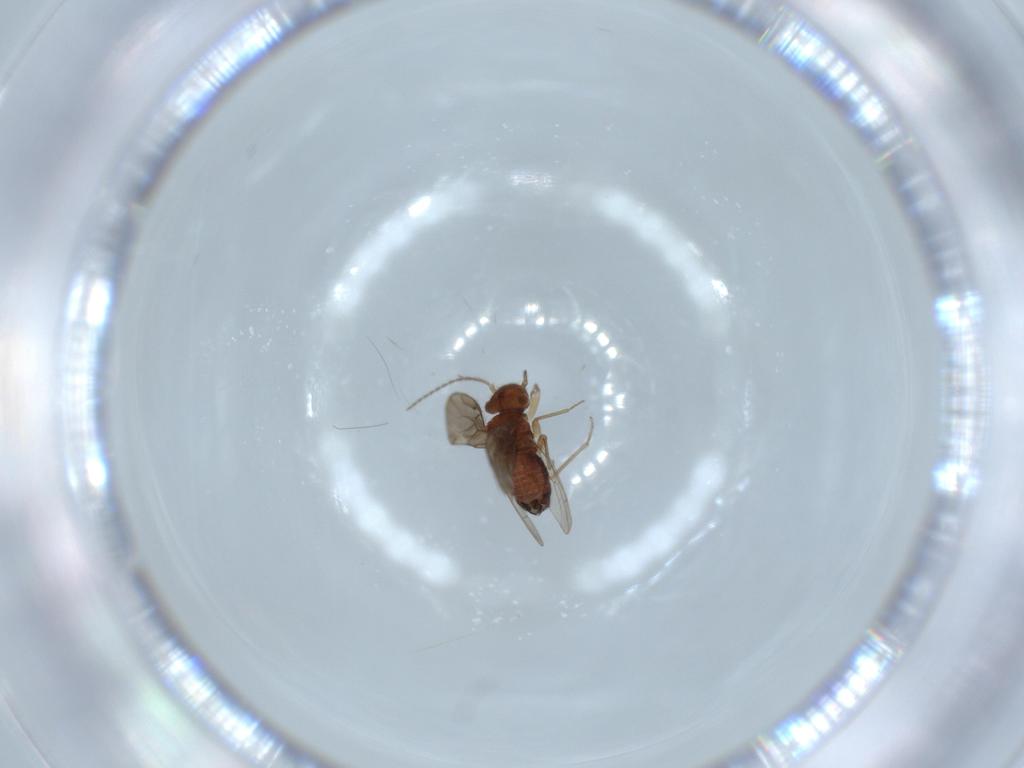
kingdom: Animalia
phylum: Arthropoda
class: Insecta
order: Psocodea
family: Ectopsocidae
